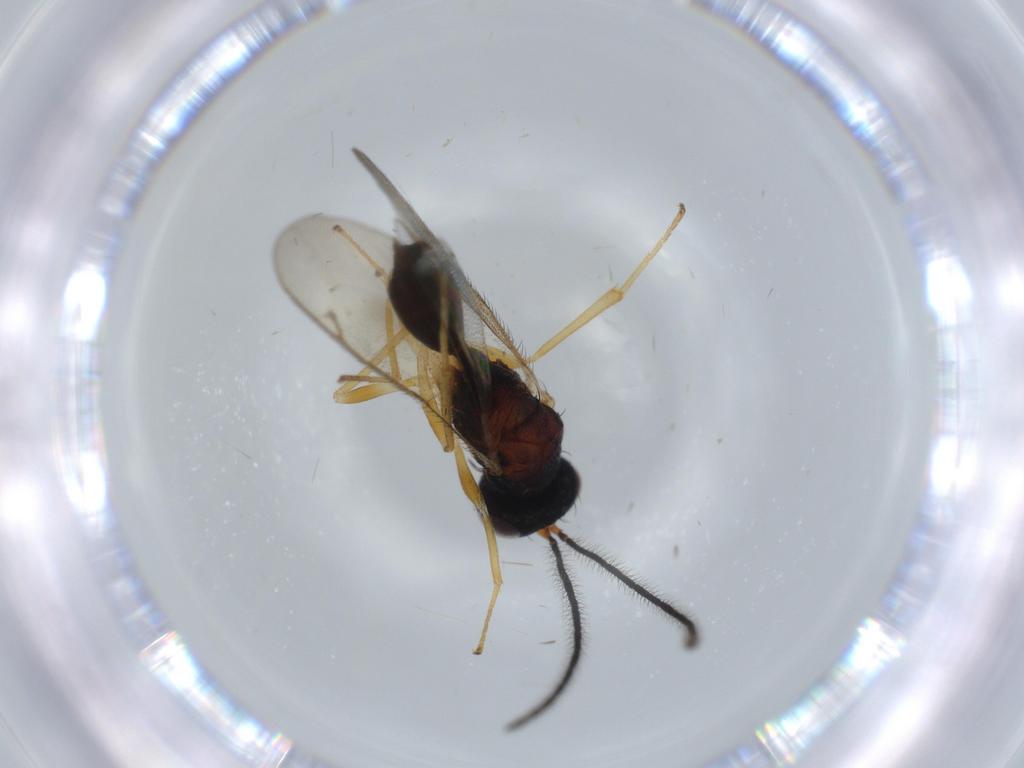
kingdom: Animalia
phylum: Arthropoda
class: Insecta
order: Hymenoptera
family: Diparidae
